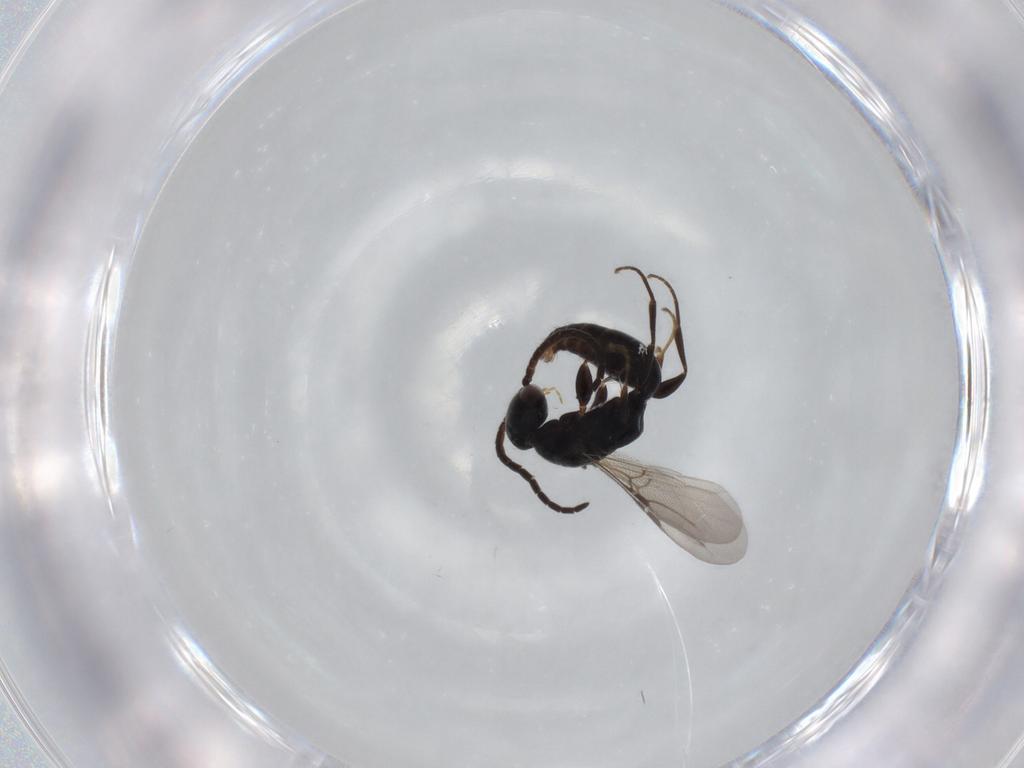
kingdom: Animalia
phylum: Arthropoda
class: Insecta
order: Hymenoptera
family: Bethylidae
